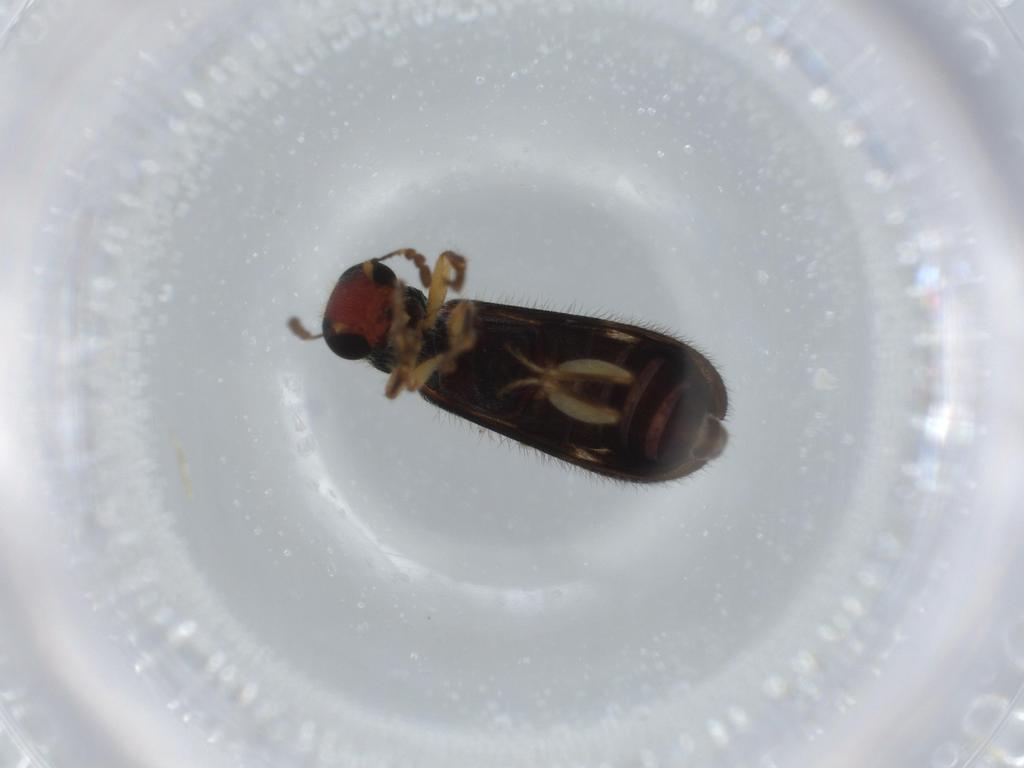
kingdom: Animalia
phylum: Arthropoda
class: Insecta
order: Coleoptera
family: Cleridae
